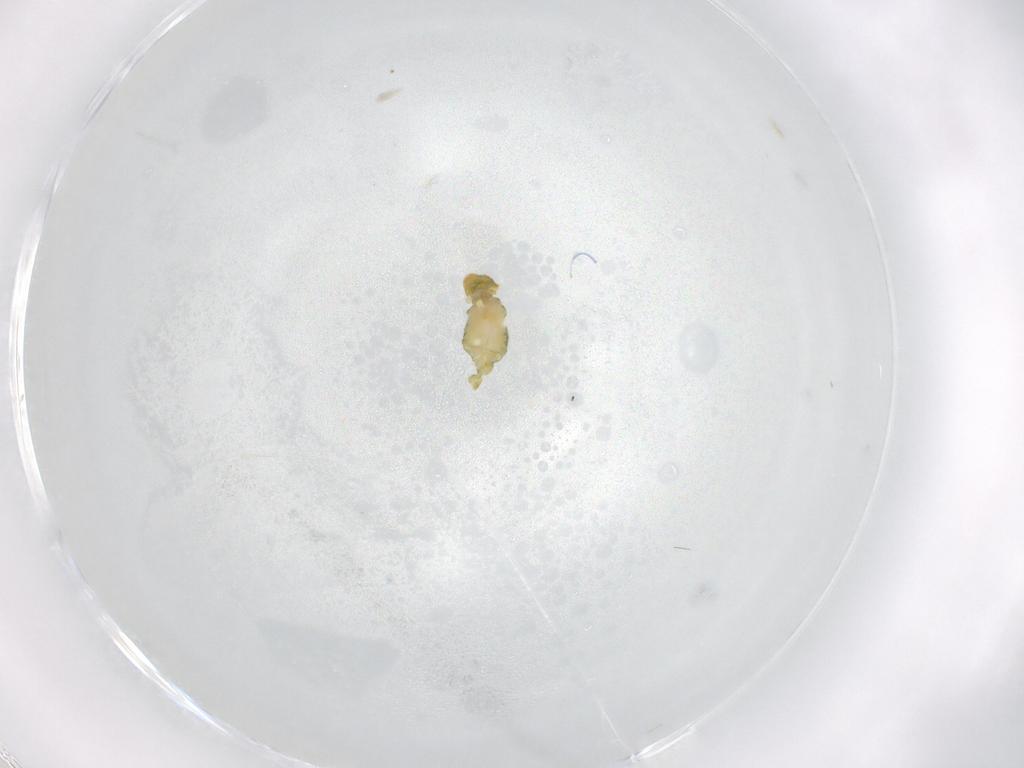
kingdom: Animalia
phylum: Arthropoda
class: Collembola
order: Symphypleona
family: Katiannidae
